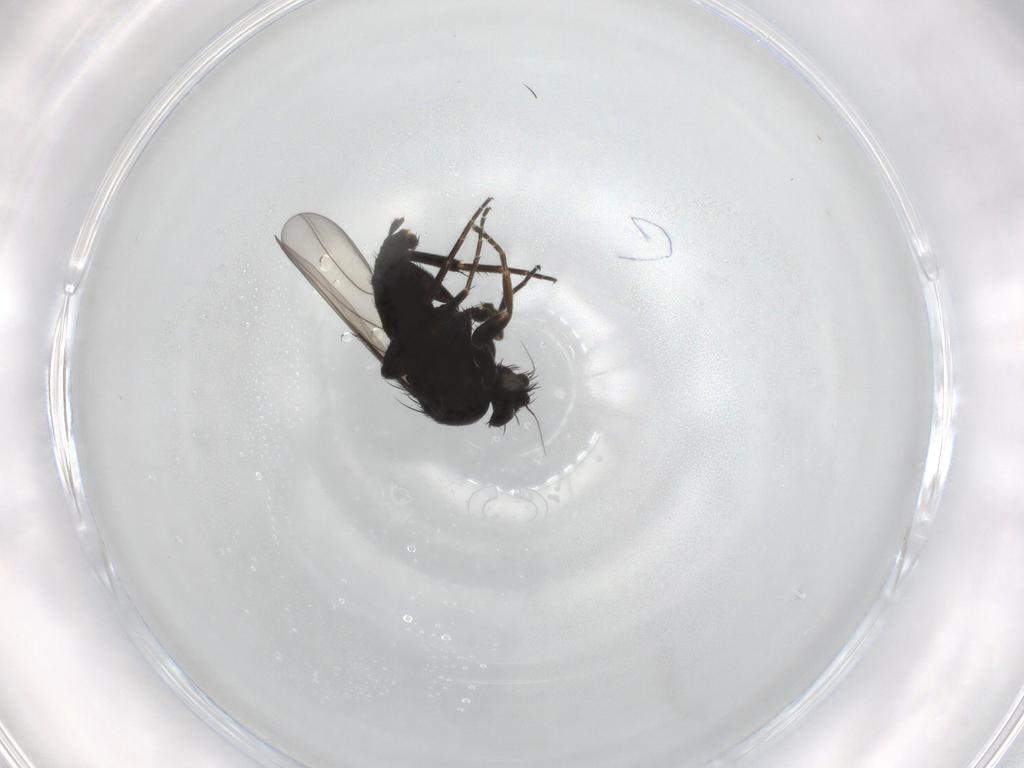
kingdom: Animalia
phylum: Arthropoda
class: Insecta
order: Diptera
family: Phoridae
